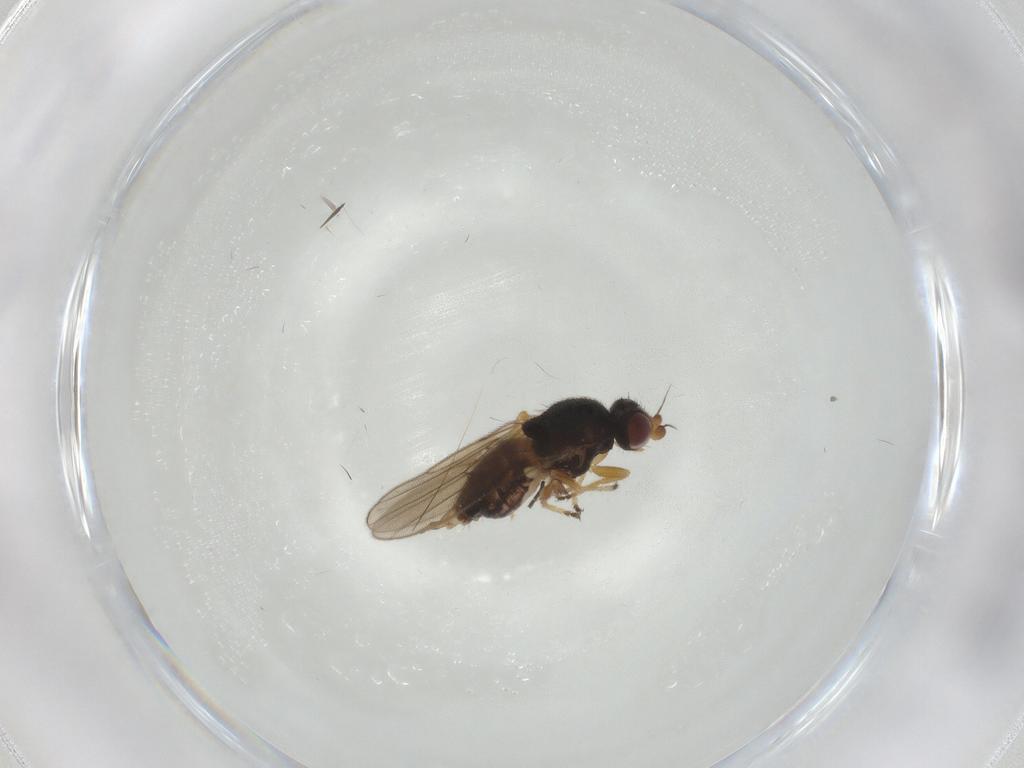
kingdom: Animalia
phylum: Arthropoda
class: Insecta
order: Diptera
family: Chloropidae
